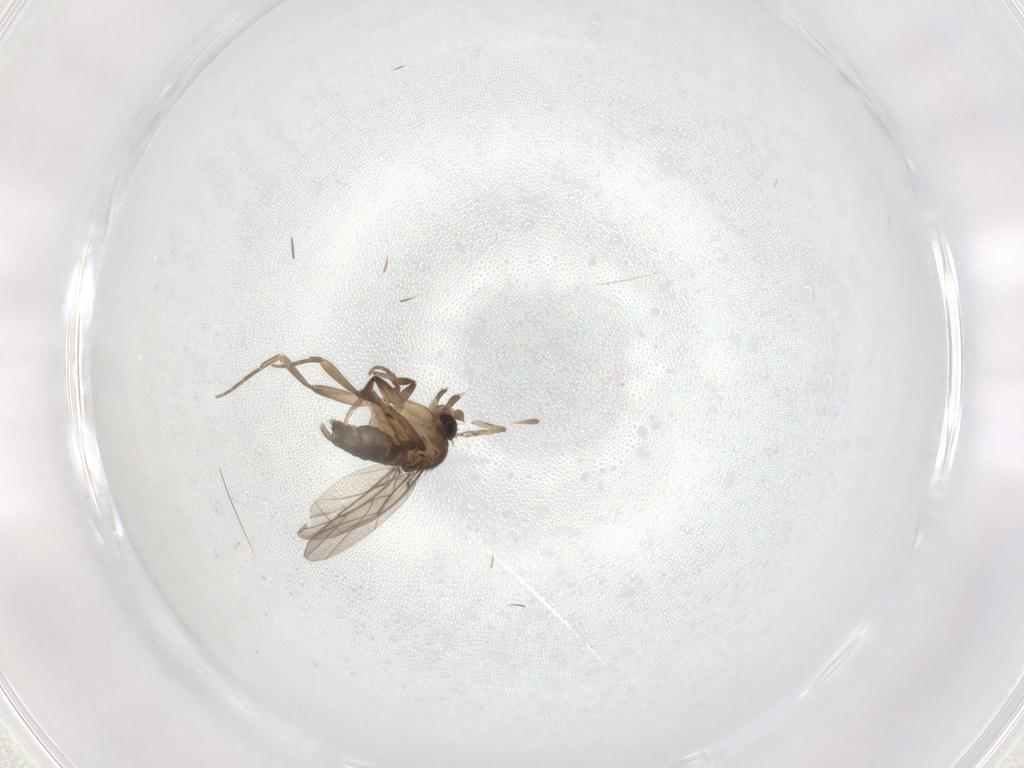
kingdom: Animalia
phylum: Arthropoda
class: Insecta
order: Diptera
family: Phoridae
